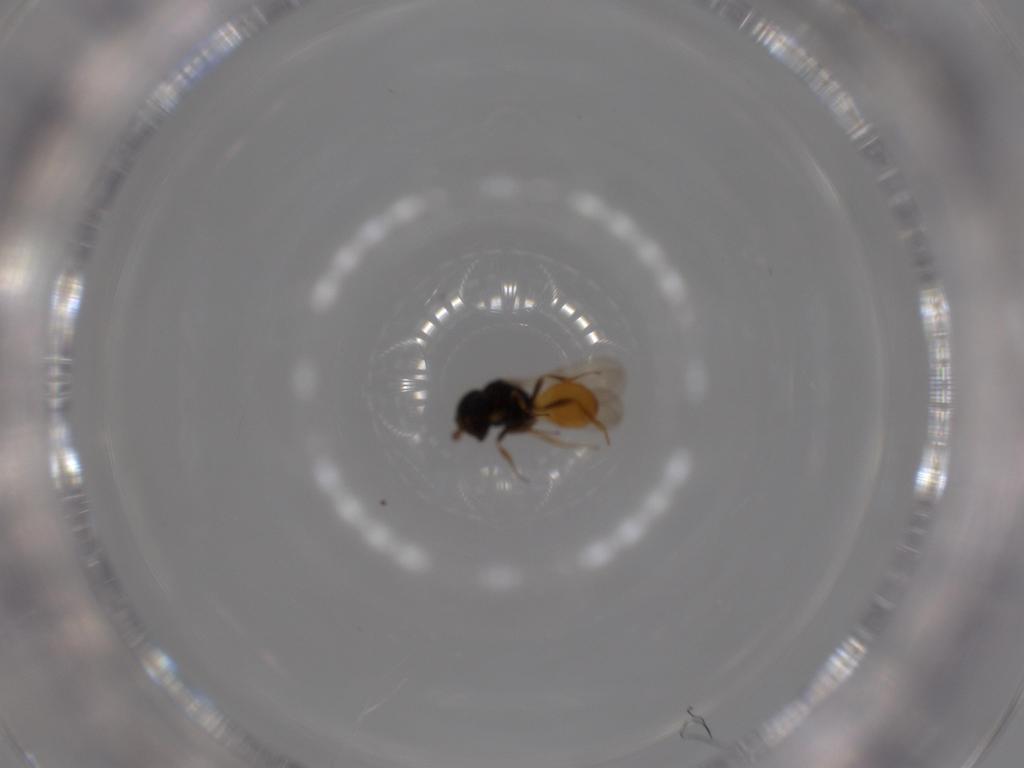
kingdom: Animalia
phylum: Arthropoda
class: Insecta
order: Hymenoptera
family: Scelionidae
